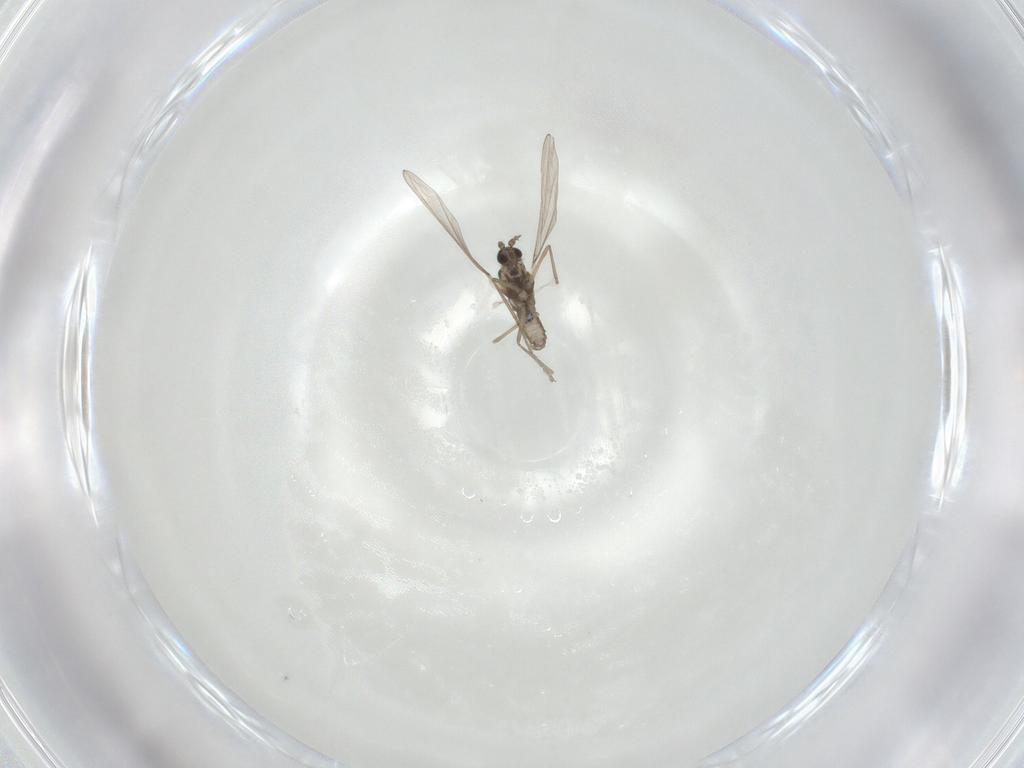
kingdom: Animalia
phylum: Arthropoda
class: Insecta
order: Diptera
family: Cecidomyiidae
